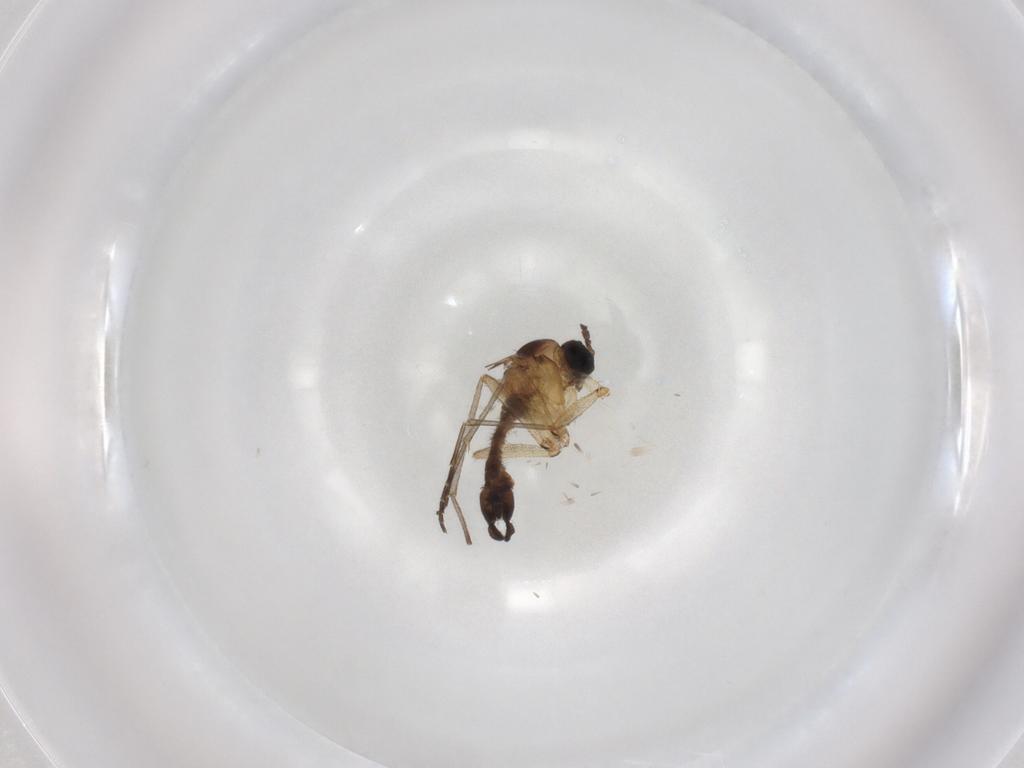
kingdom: Animalia
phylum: Arthropoda
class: Insecta
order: Diptera
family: Sciaridae
